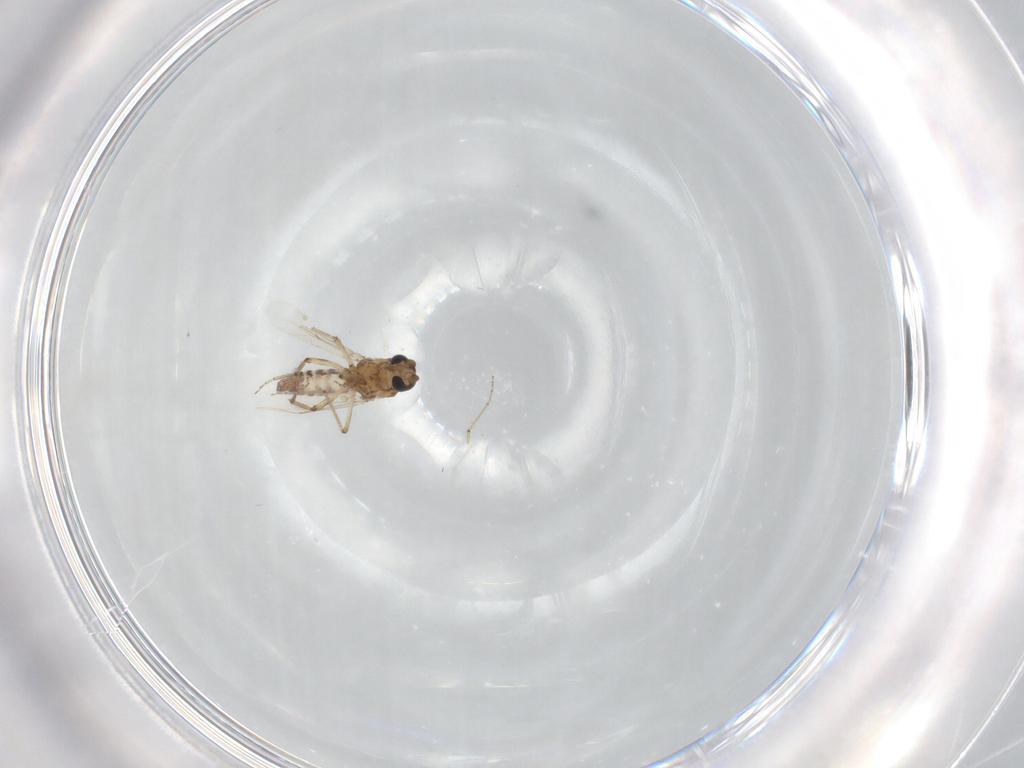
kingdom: Animalia
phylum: Arthropoda
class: Insecta
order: Diptera
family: Ceratopogonidae
